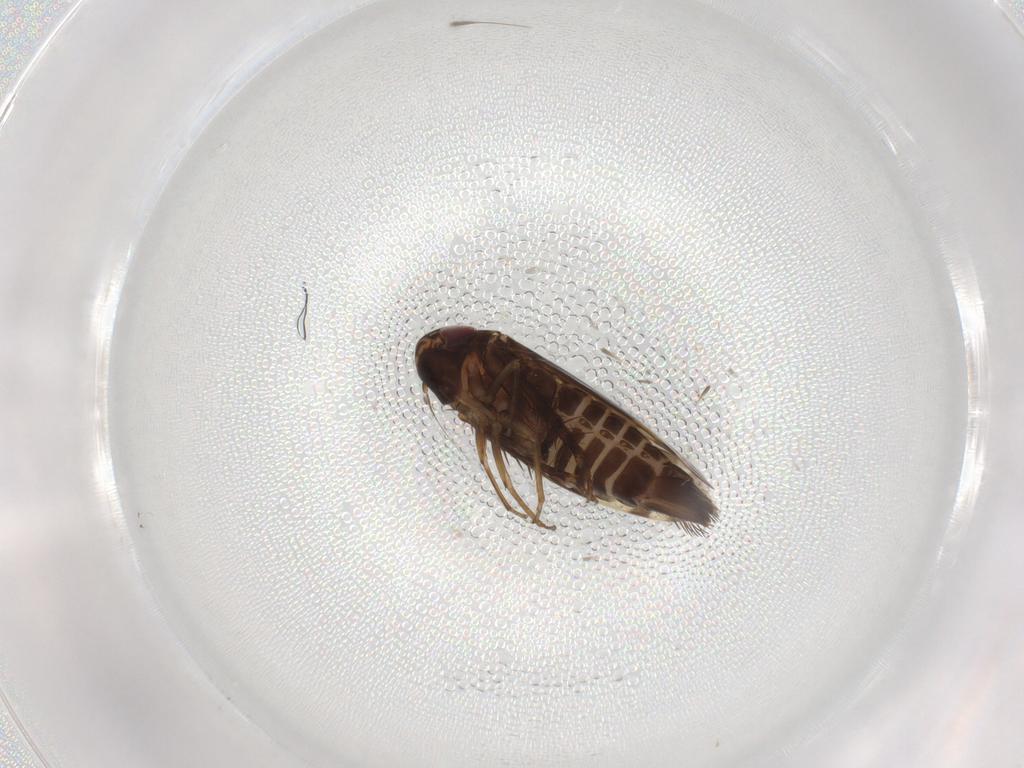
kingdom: Animalia
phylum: Arthropoda
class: Insecta
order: Hemiptera
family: Cicadellidae
